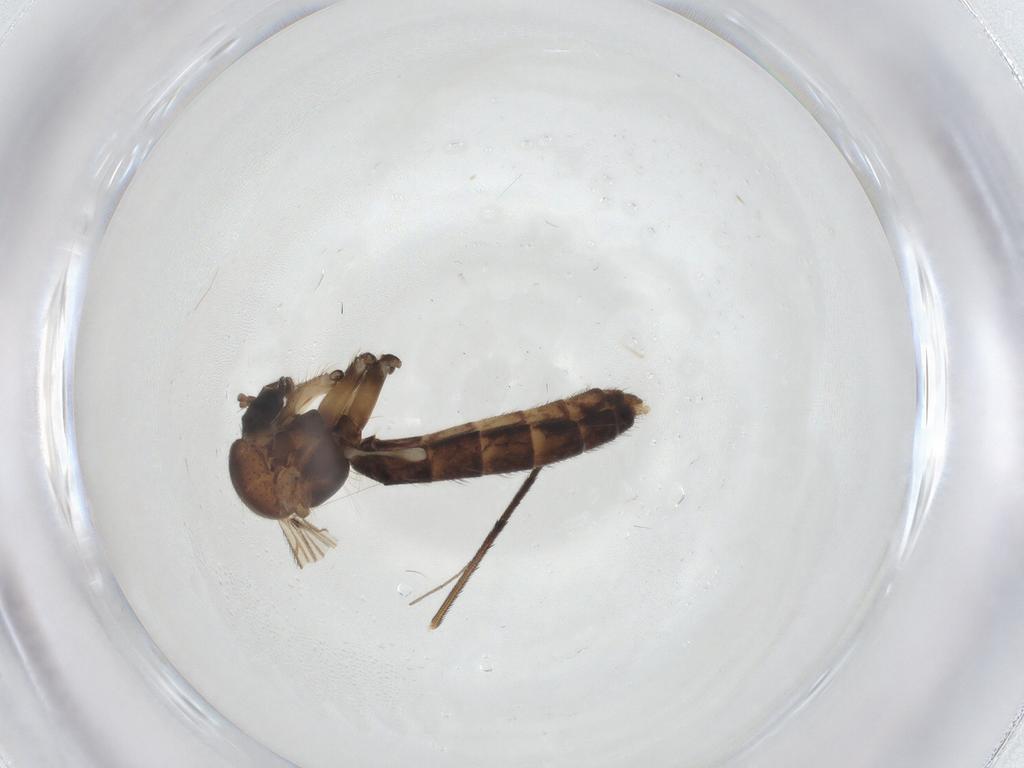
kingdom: Animalia
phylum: Arthropoda
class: Insecta
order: Diptera
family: Mycetophilidae
